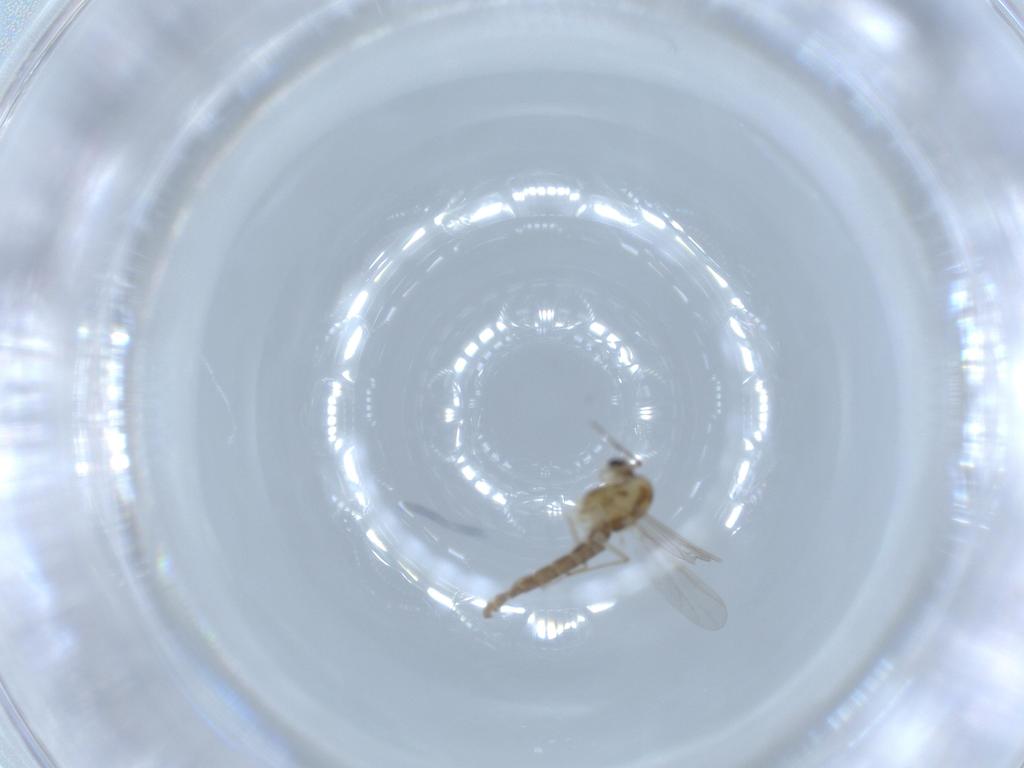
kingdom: Animalia
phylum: Arthropoda
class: Insecta
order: Diptera
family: Chironomidae
